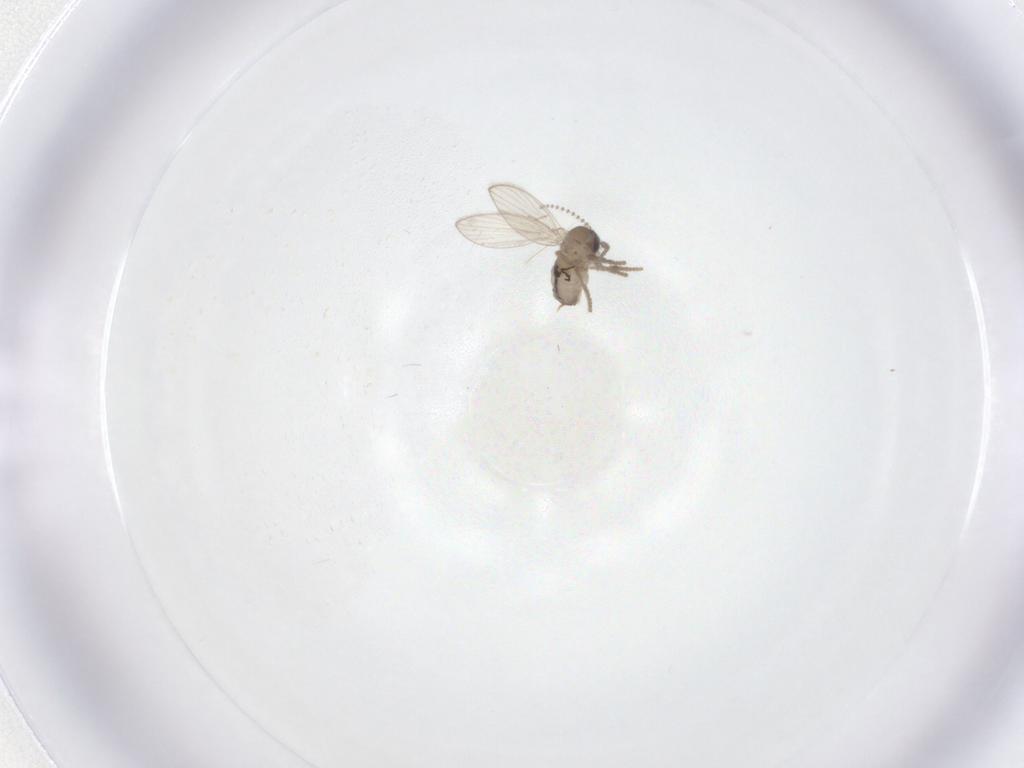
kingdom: Animalia
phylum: Arthropoda
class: Insecta
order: Diptera
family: Psychodidae
